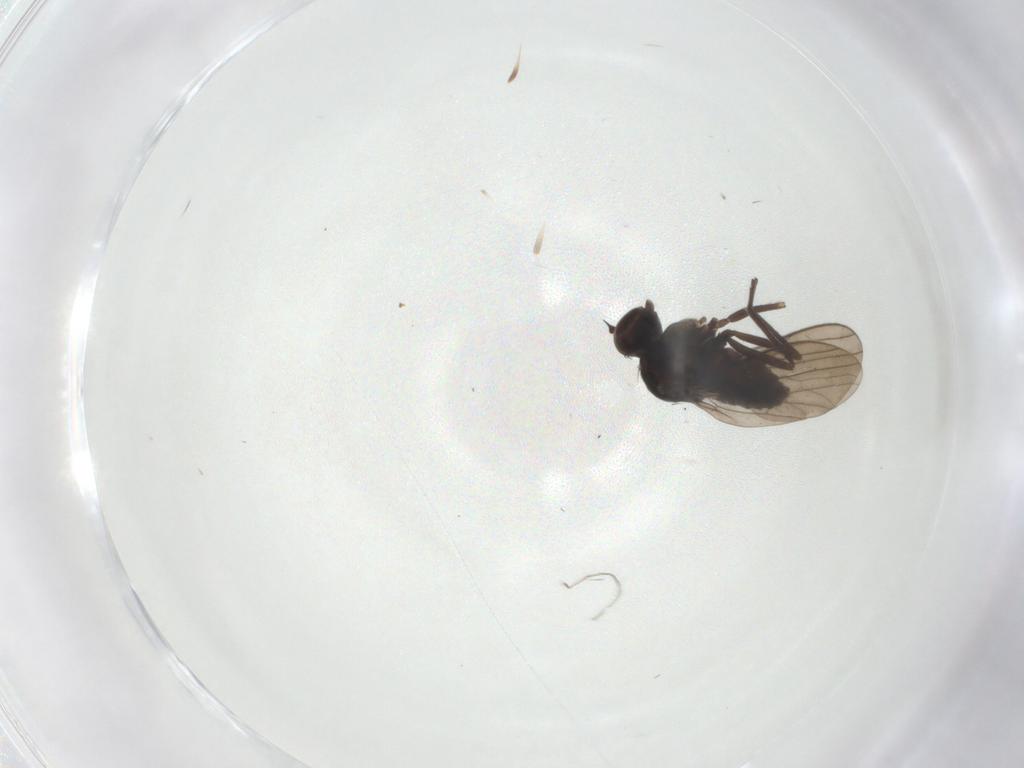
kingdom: Animalia
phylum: Arthropoda
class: Insecta
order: Diptera
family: Dolichopodidae
